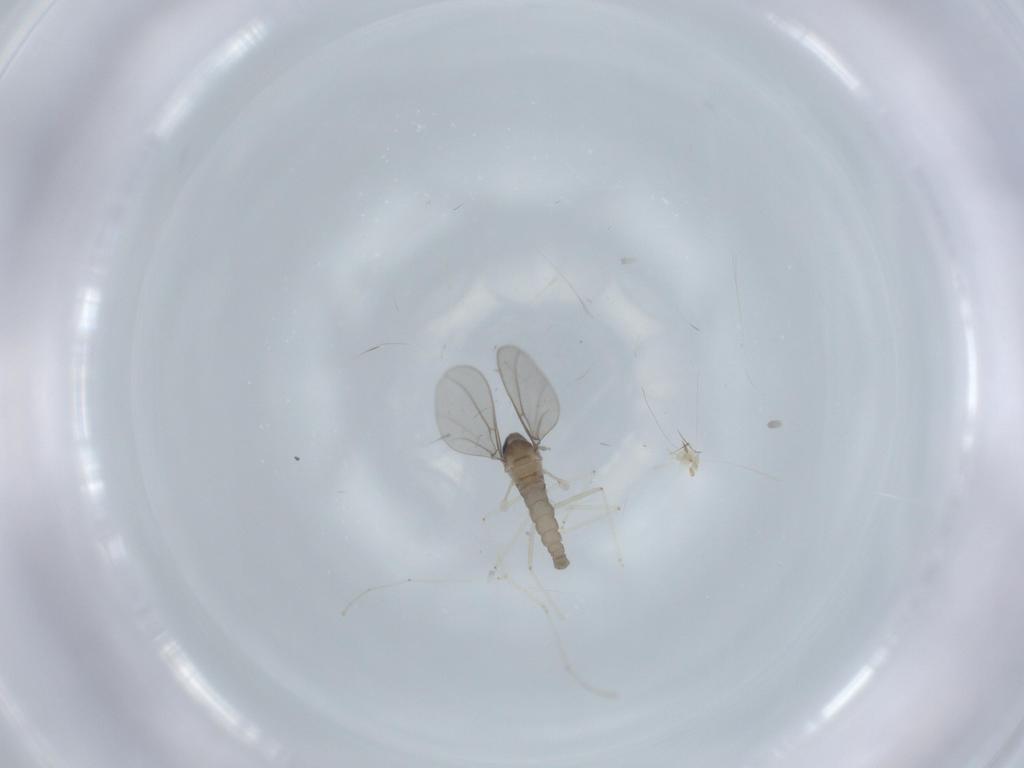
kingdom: Animalia
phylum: Arthropoda
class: Insecta
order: Diptera
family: Cecidomyiidae
